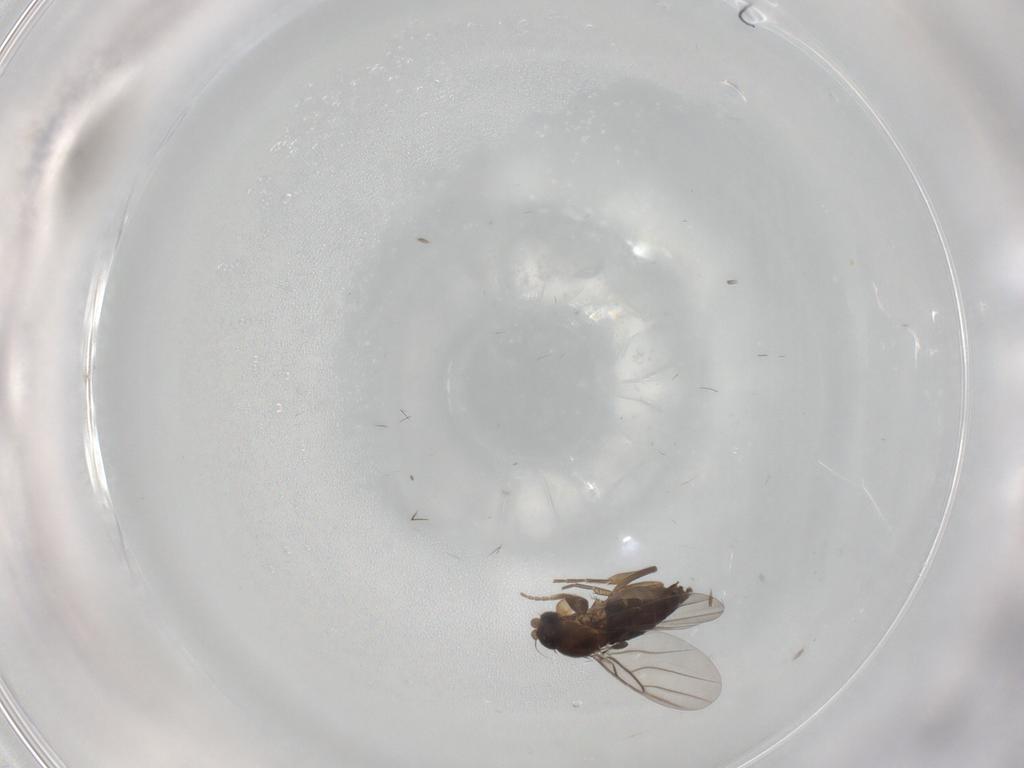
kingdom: Animalia
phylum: Arthropoda
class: Insecta
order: Diptera
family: Phoridae
